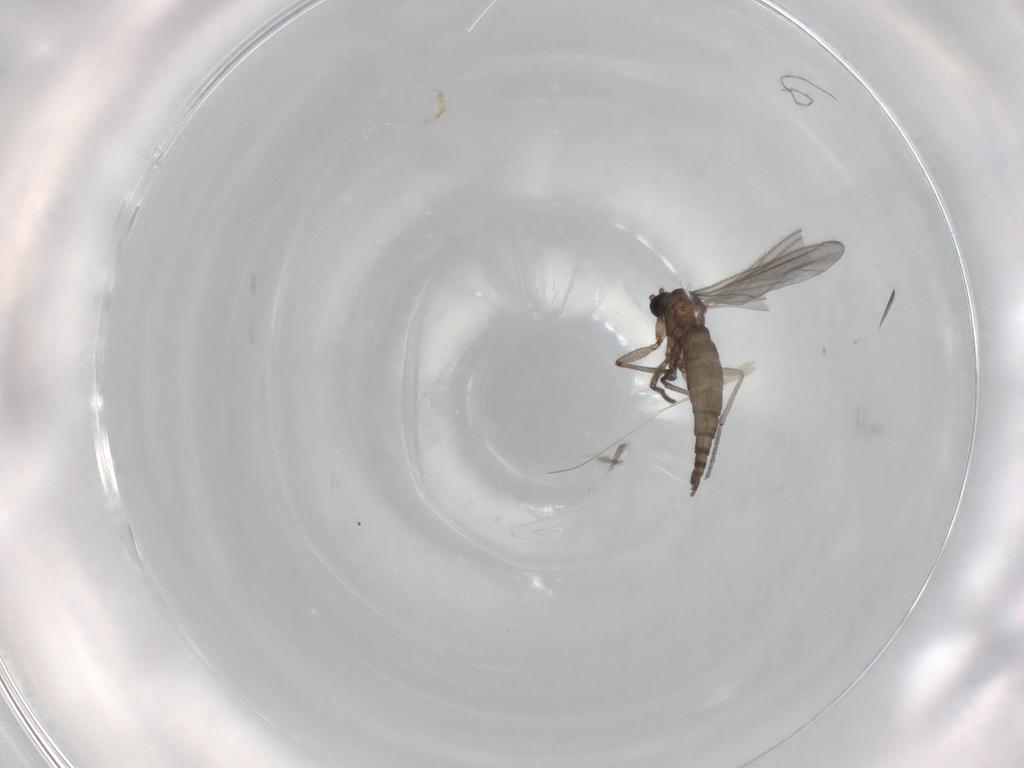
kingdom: Animalia
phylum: Arthropoda
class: Insecta
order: Diptera
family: Sciaridae
